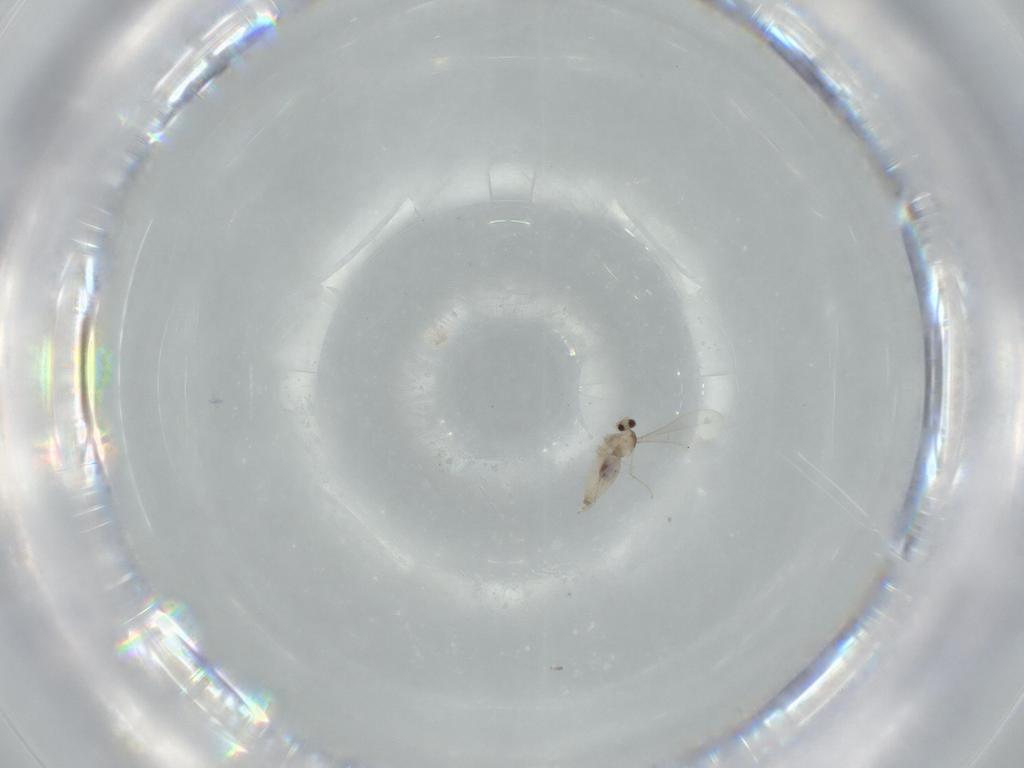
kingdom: Animalia
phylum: Arthropoda
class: Insecta
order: Diptera
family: Cecidomyiidae
